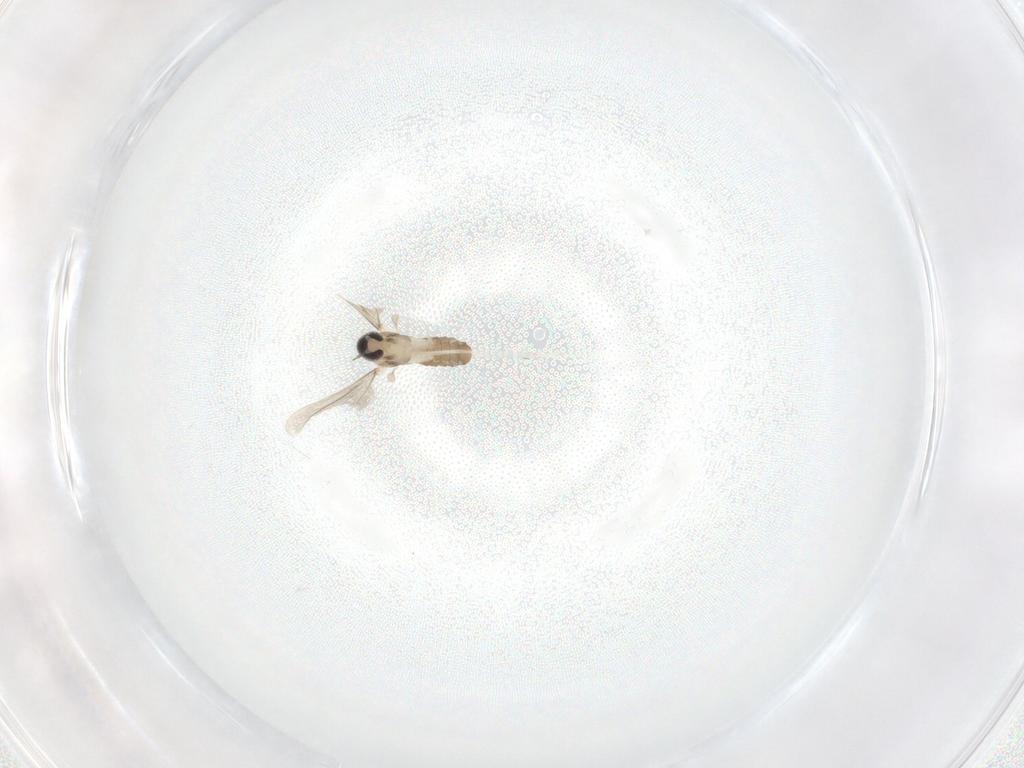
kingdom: Animalia
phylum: Arthropoda
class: Insecta
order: Diptera
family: Cecidomyiidae
